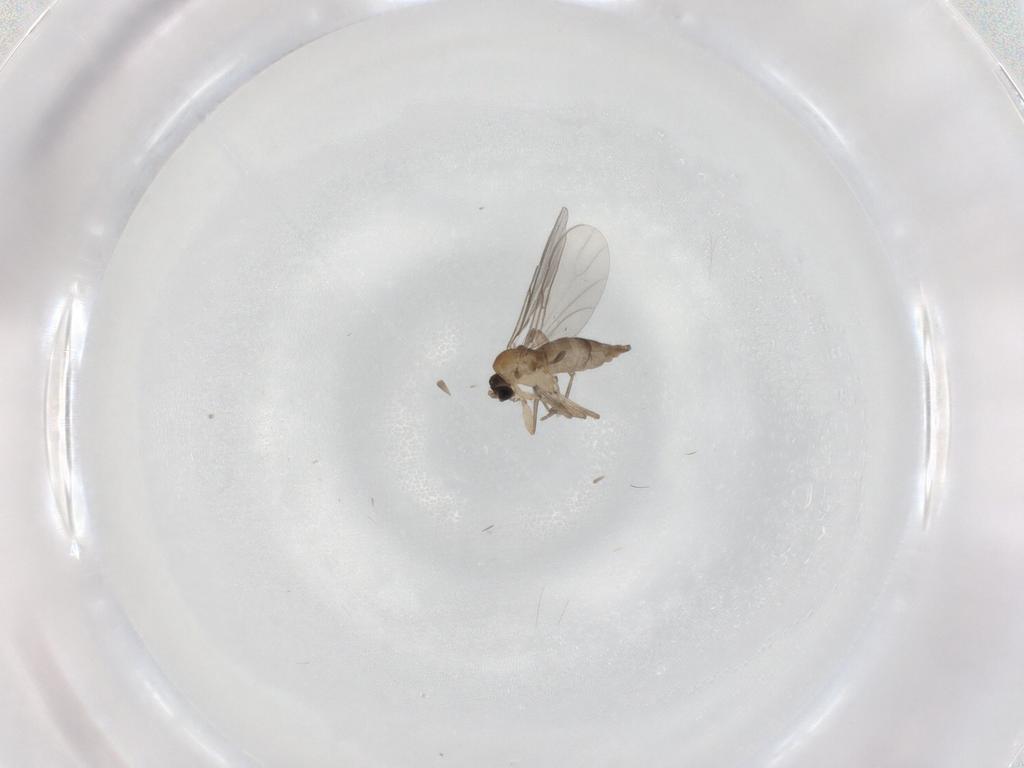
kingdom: Animalia
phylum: Arthropoda
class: Insecta
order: Diptera
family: Sciaridae
